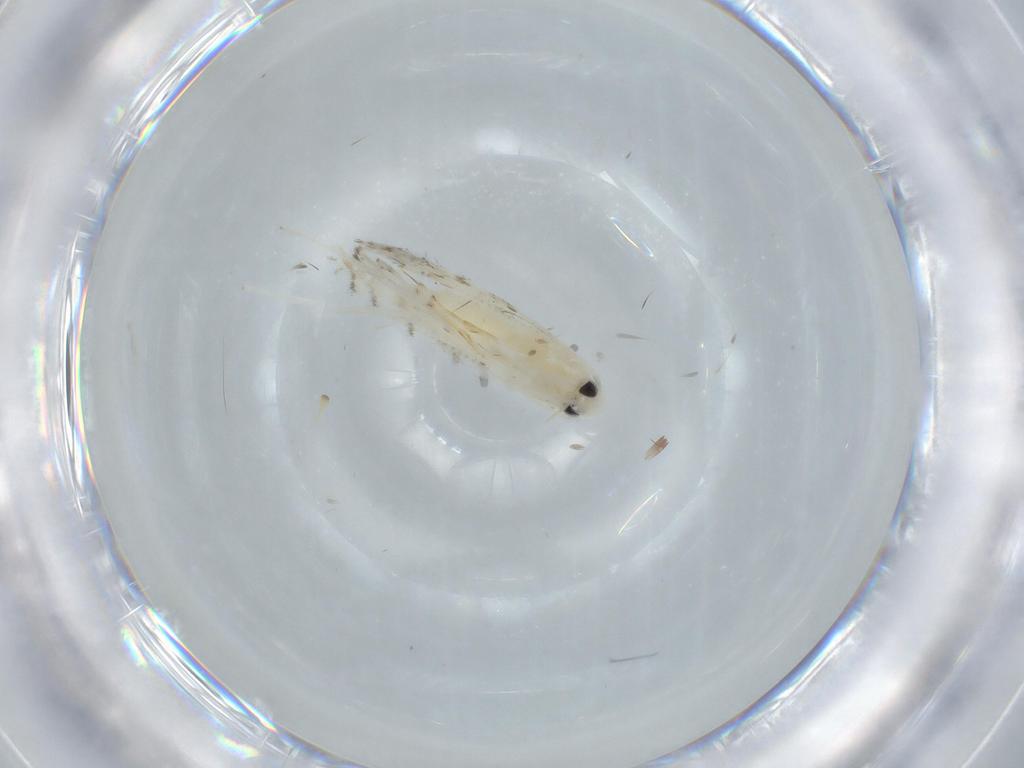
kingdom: Animalia
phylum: Arthropoda
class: Insecta
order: Lepidoptera
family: Gracillariidae
